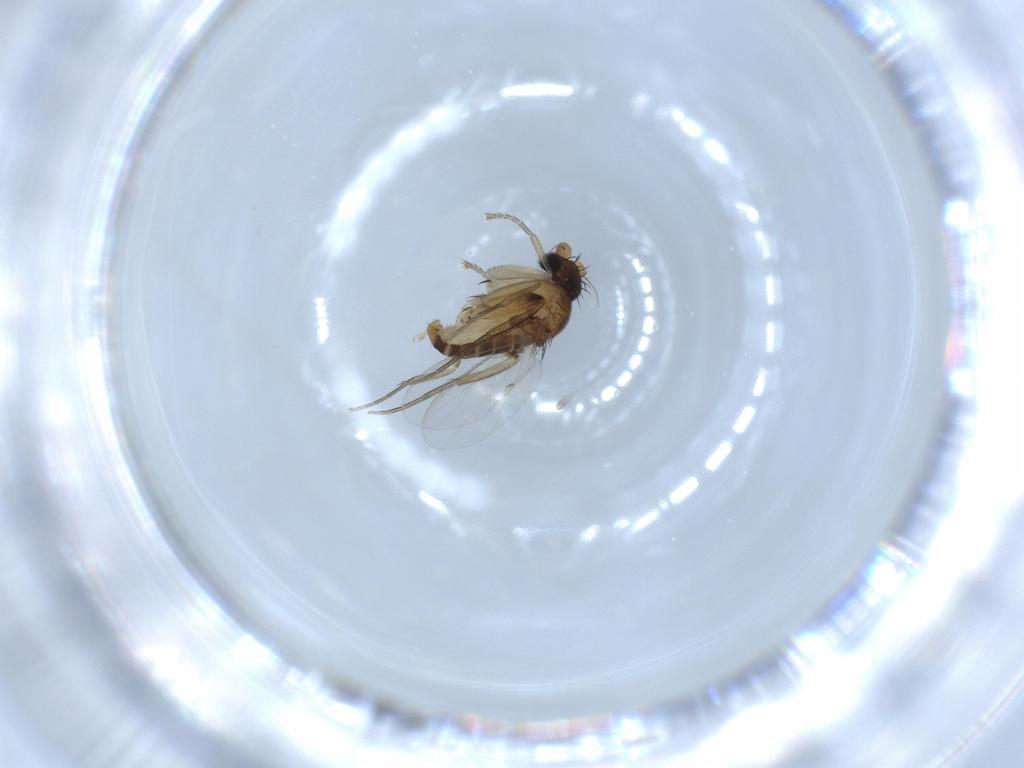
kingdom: Animalia
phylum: Arthropoda
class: Insecta
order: Diptera
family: Phoridae
